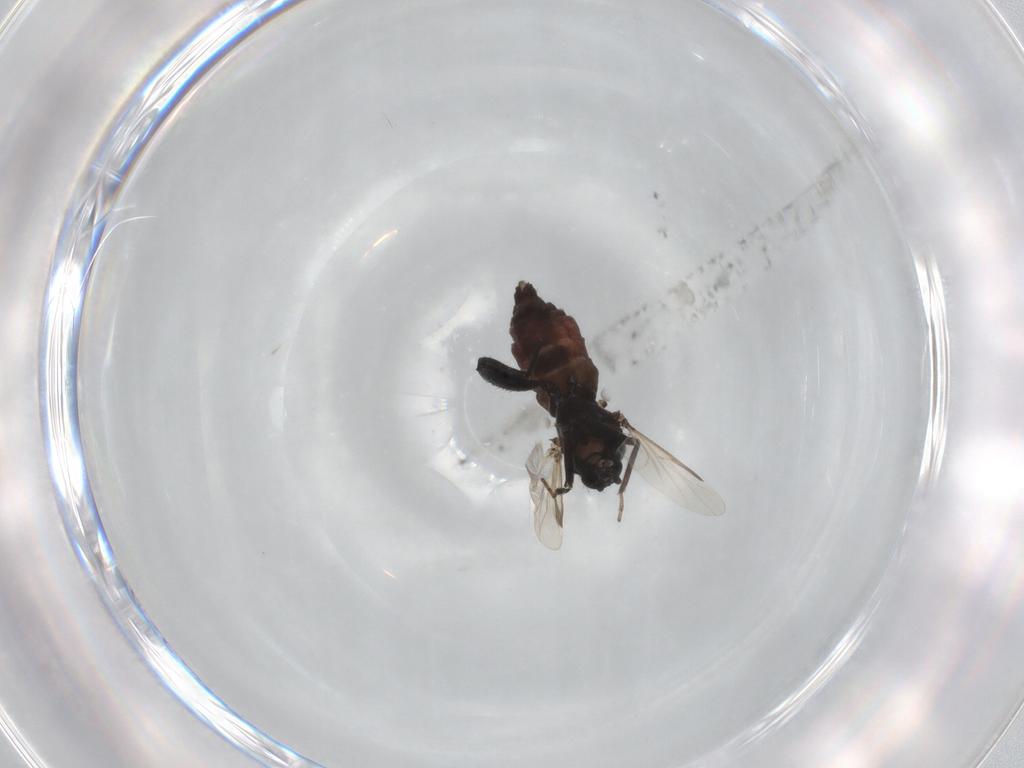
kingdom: Animalia
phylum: Arthropoda
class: Insecta
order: Diptera
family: Ceratopogonidae
